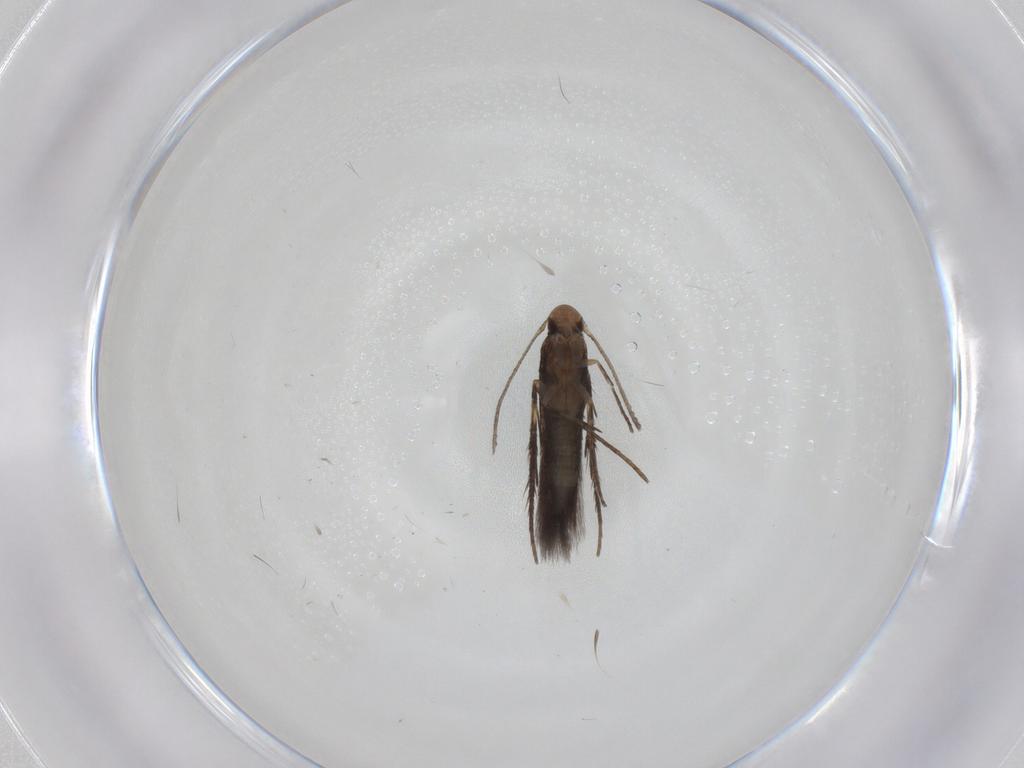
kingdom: Animalia
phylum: Arthropoda
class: Insecta
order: Lepidoptera
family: Gelechiidae
